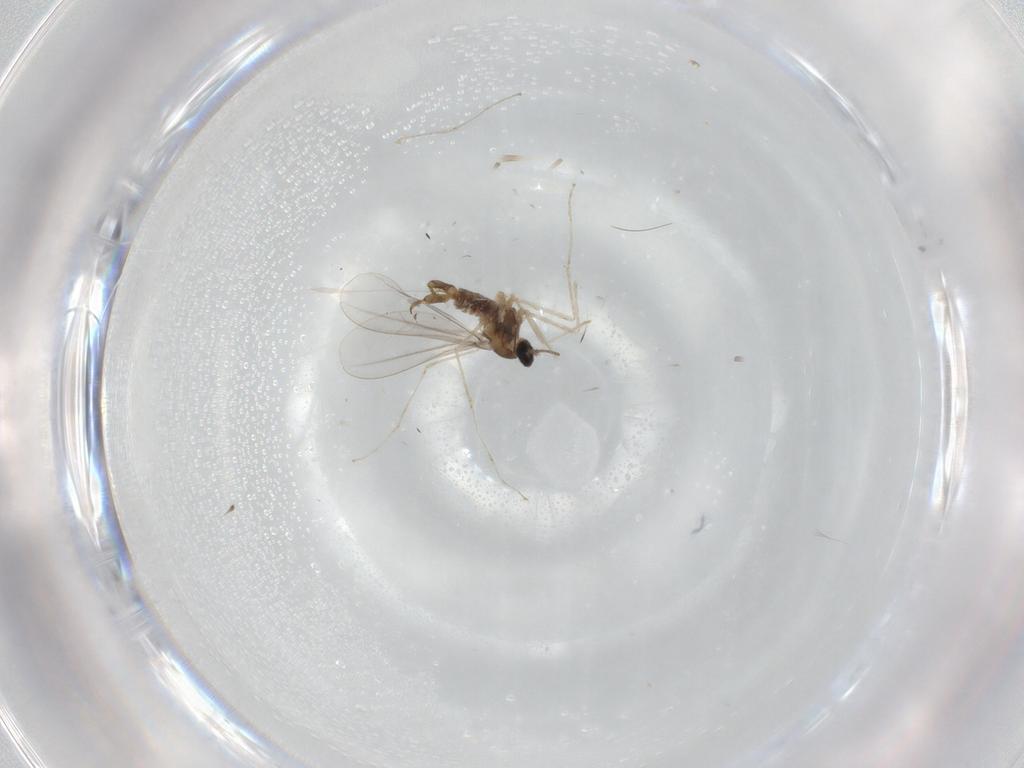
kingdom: Animalia
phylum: Arthropoda
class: Insecta
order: Diptera
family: Cecidomyiidae
